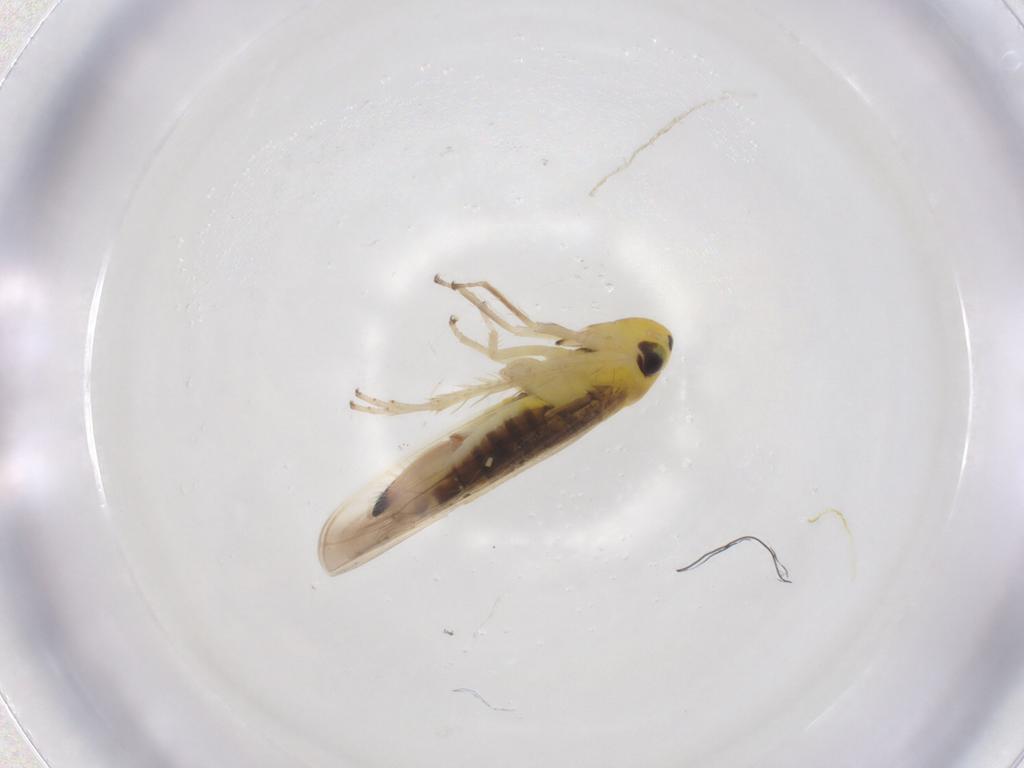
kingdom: Animalia
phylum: Arthropoda
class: Insecta
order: Hemiptera
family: Cicadellidae
